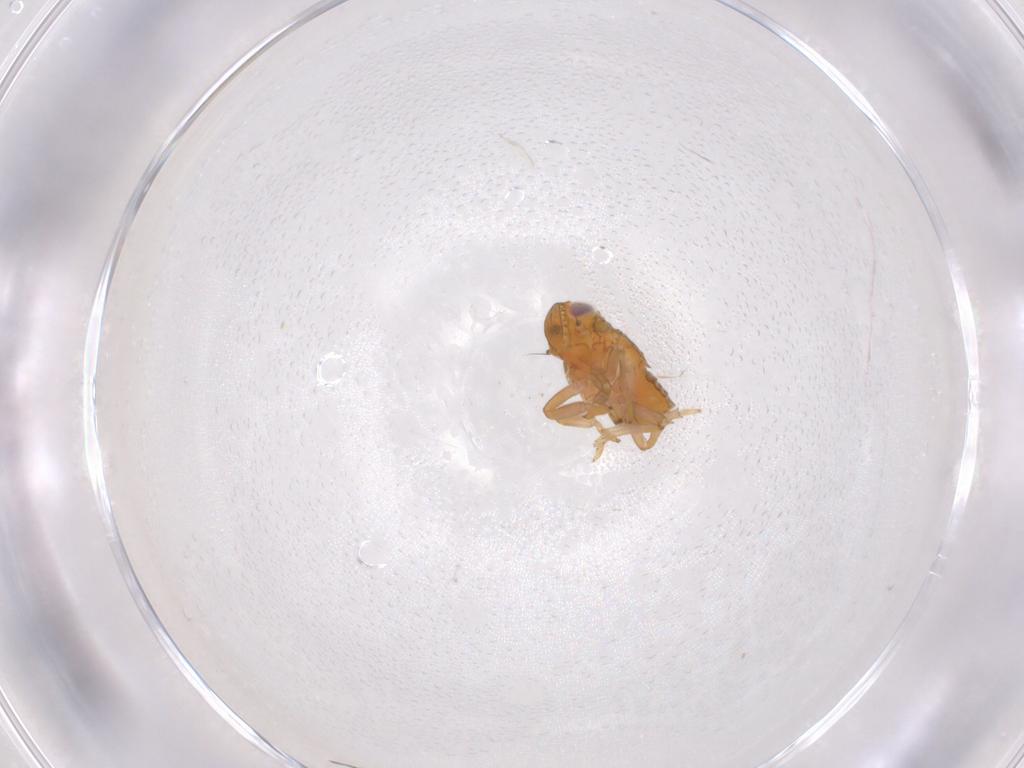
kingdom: Animalia
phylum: Arthropoda
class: Insecta
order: Hemiptera
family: Issidae
